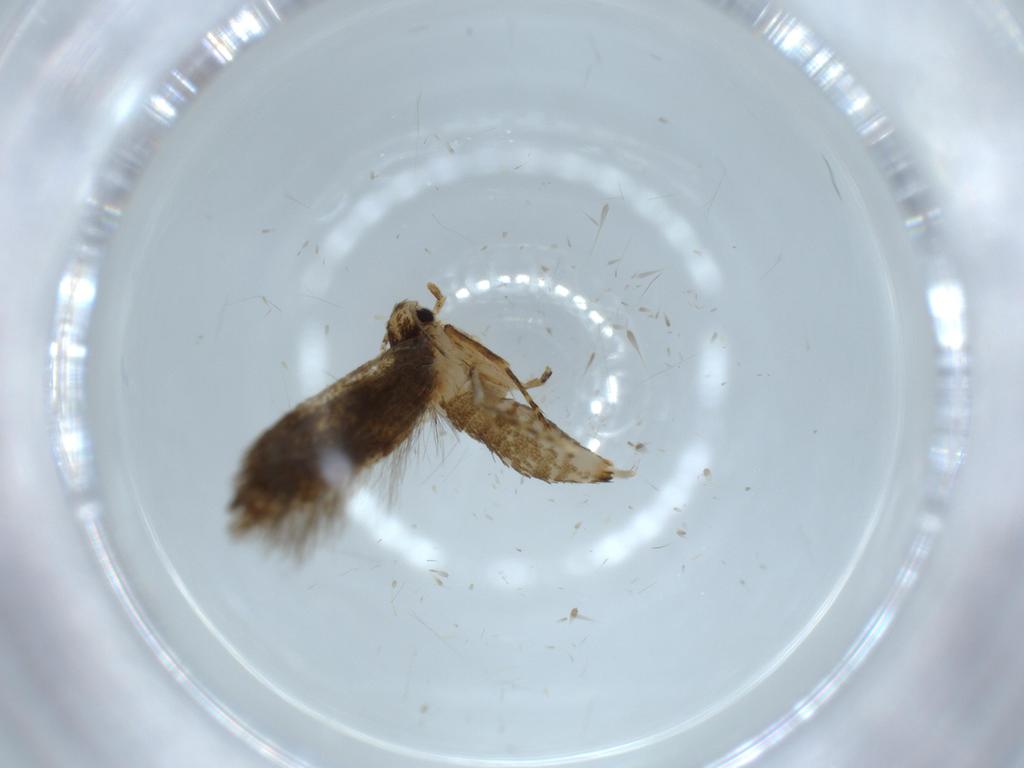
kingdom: Animalia
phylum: Arthropoda
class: Insecta
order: Lepidoptera
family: Tineidae
